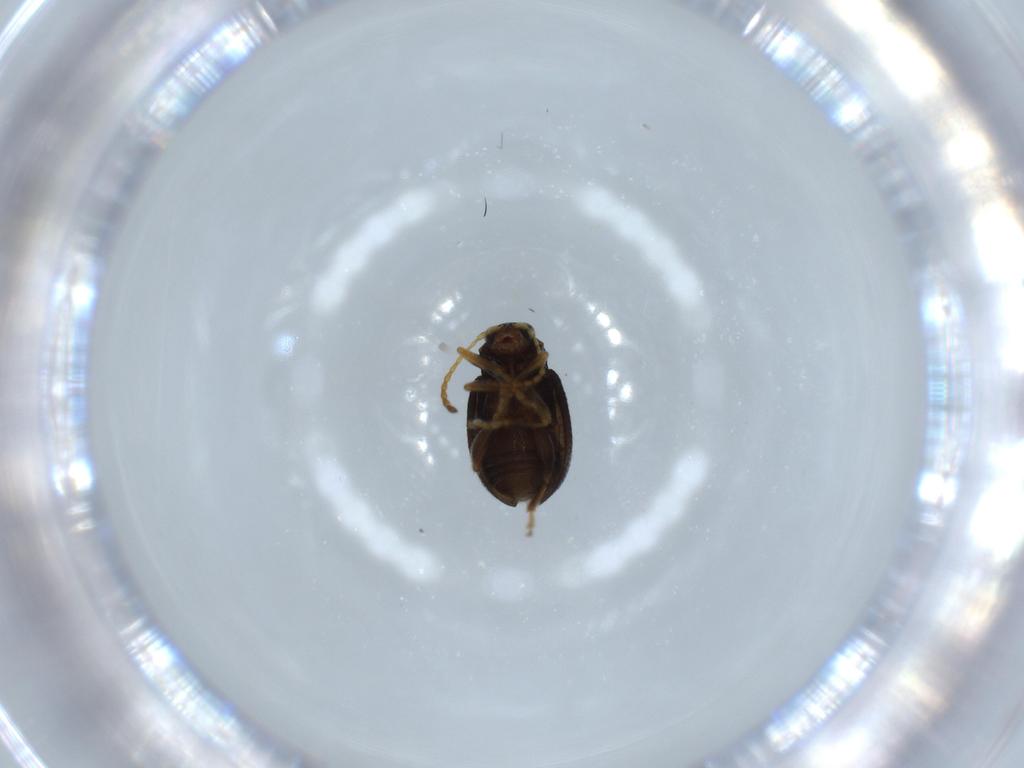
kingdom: Animalia
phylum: Arthropoda
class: Insecta
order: Coleoptera
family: Chrysomelidae
